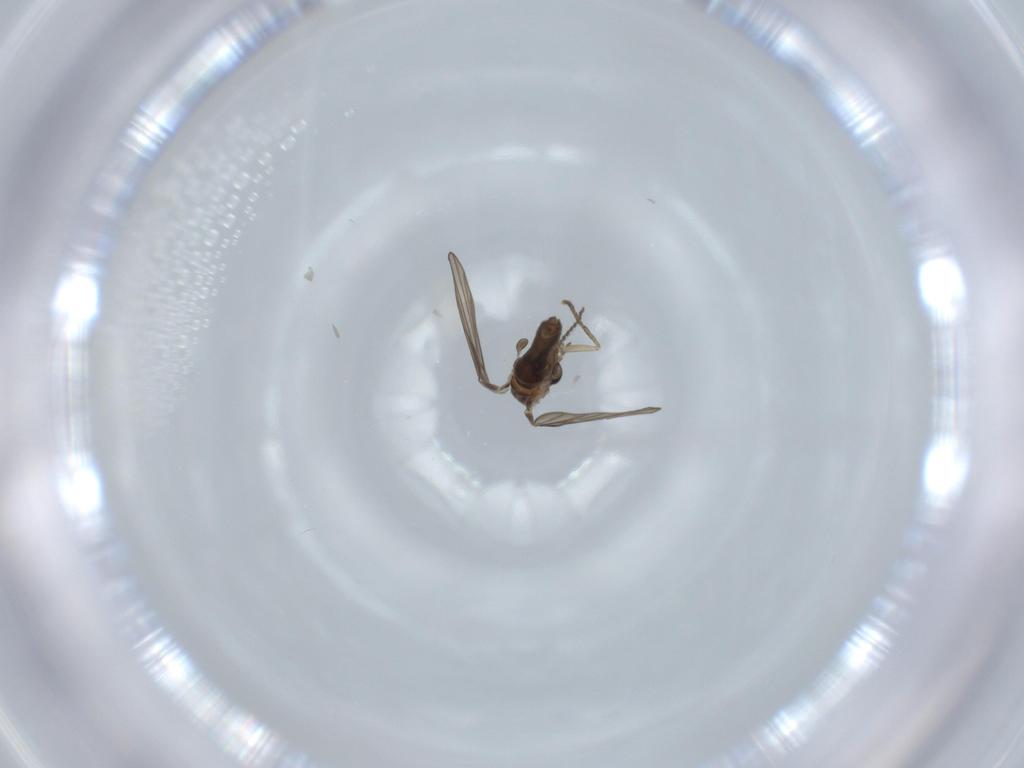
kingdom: Animalia
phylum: Arthropoda
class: Insecta
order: Diptera
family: Psychodidae
